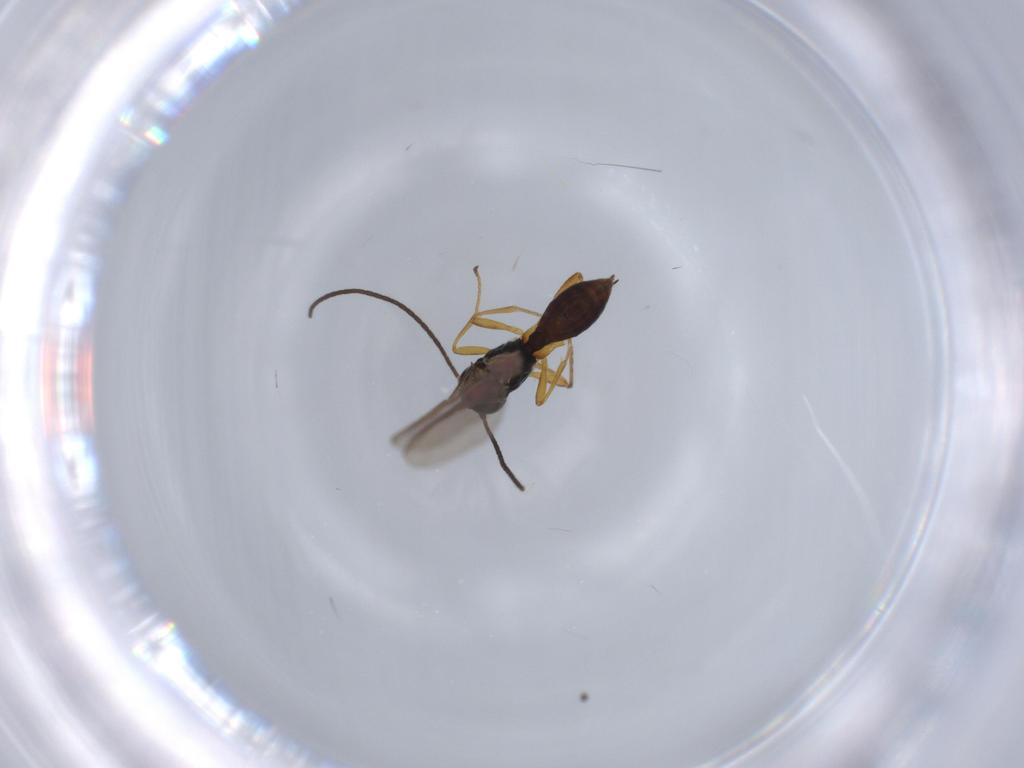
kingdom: Animalia
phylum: Arthropoda
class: Insecta
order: Hymenoptera
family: Braconidae
